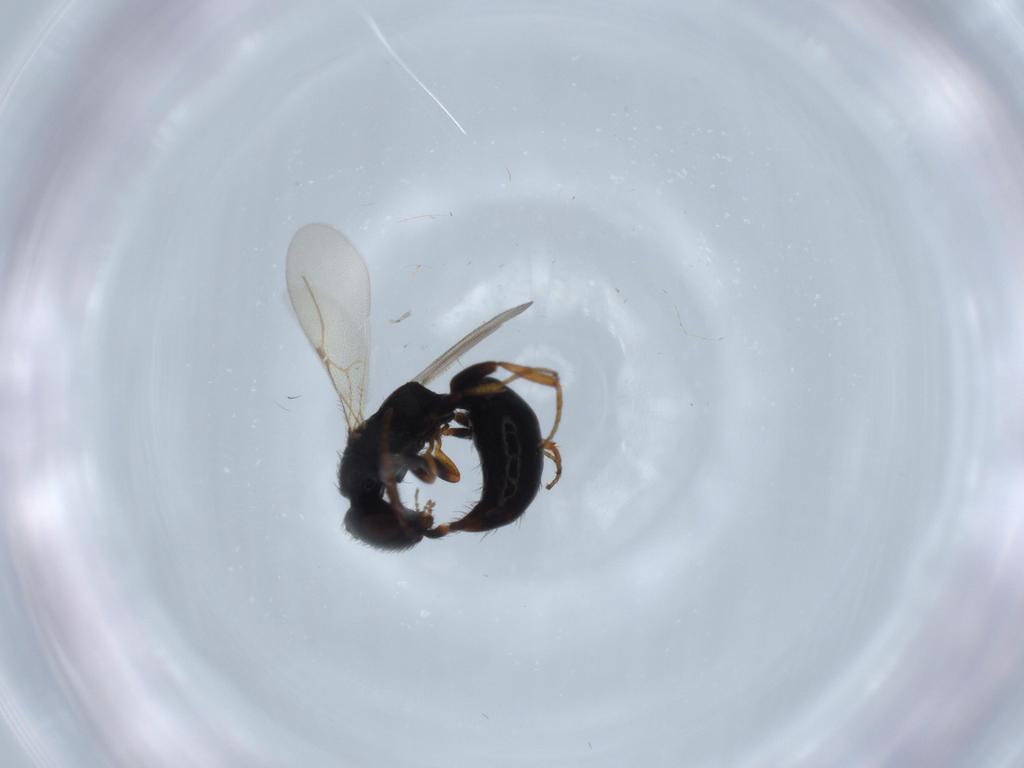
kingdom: Animalia
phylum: Arthropoda
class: Insecta
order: Hymenoptera
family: Bethylidae
